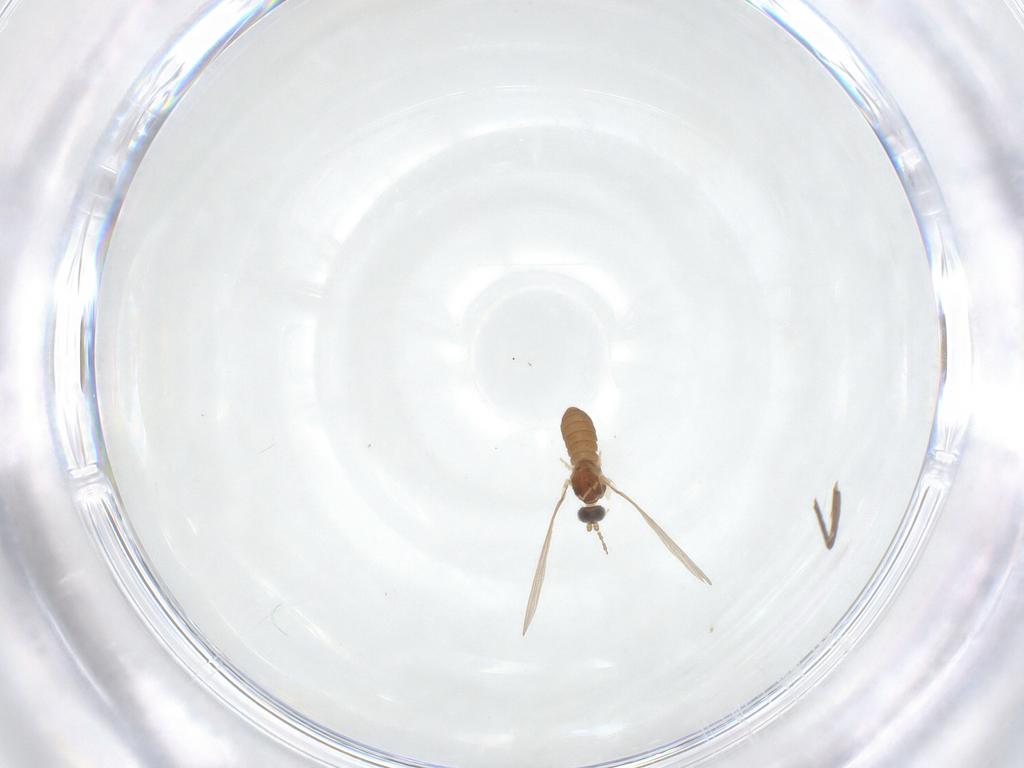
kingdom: Animalia
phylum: Arthropoda
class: Insecta
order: Diptera
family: Cecidomyiidae
